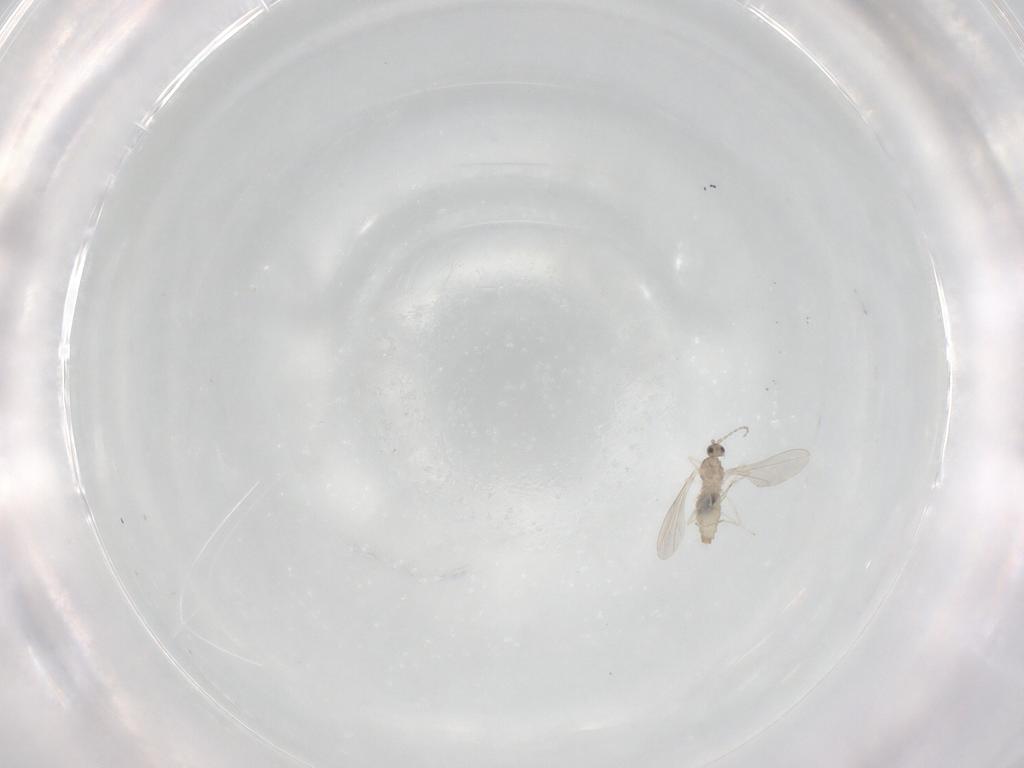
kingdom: Animalia
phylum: Arthropoda
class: Insecta
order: Diptera
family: Cecidomyiidae
